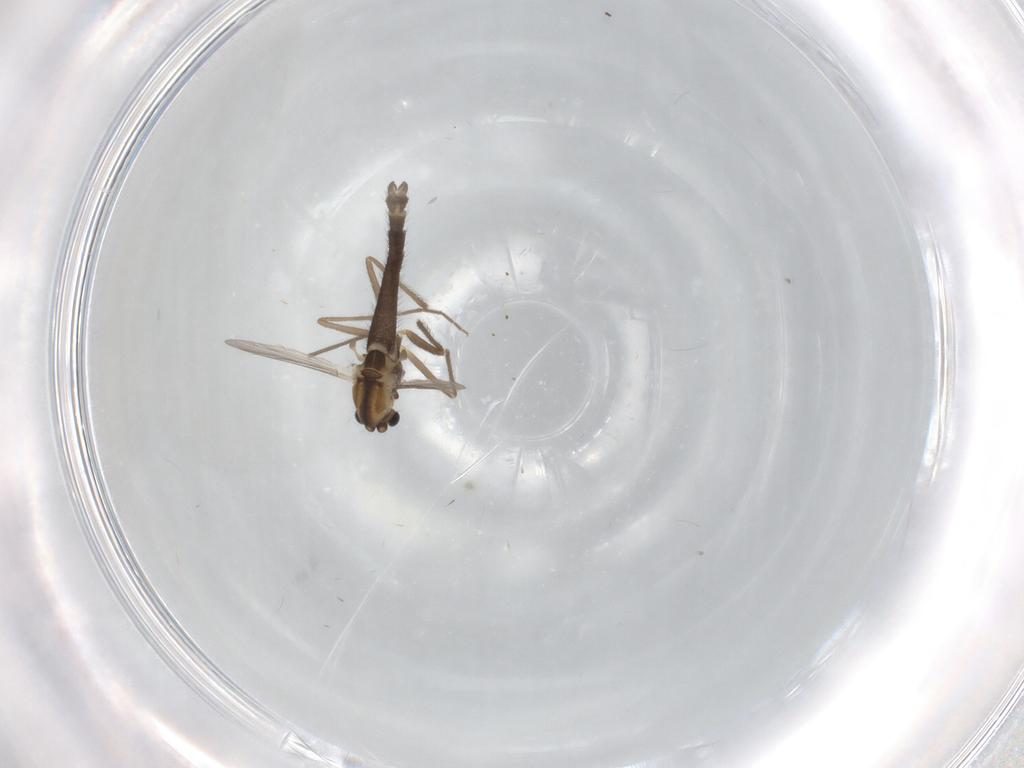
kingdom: Animalia
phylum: Arthropoda
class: Insecta
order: Diptera
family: Chironomidae
